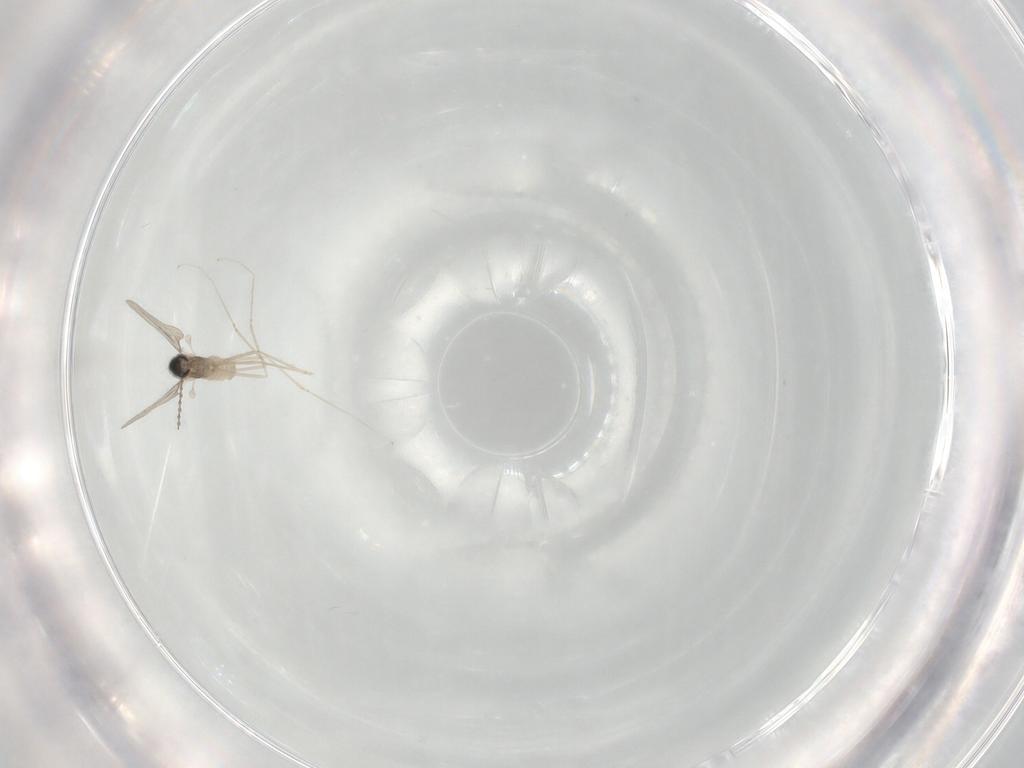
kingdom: Animalia
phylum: Arthropoda
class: Insecta
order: Diptera
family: Cecidomyiidae
